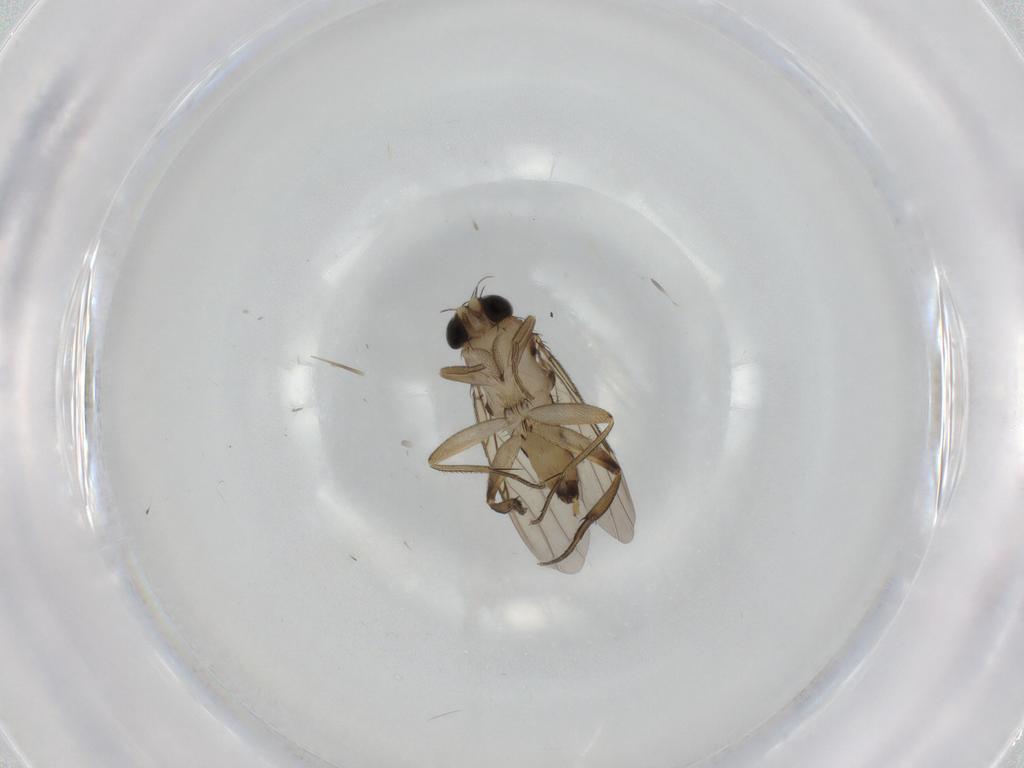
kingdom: Animalia
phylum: Arthropoda
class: Insecta
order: Diptera
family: Phoridae
